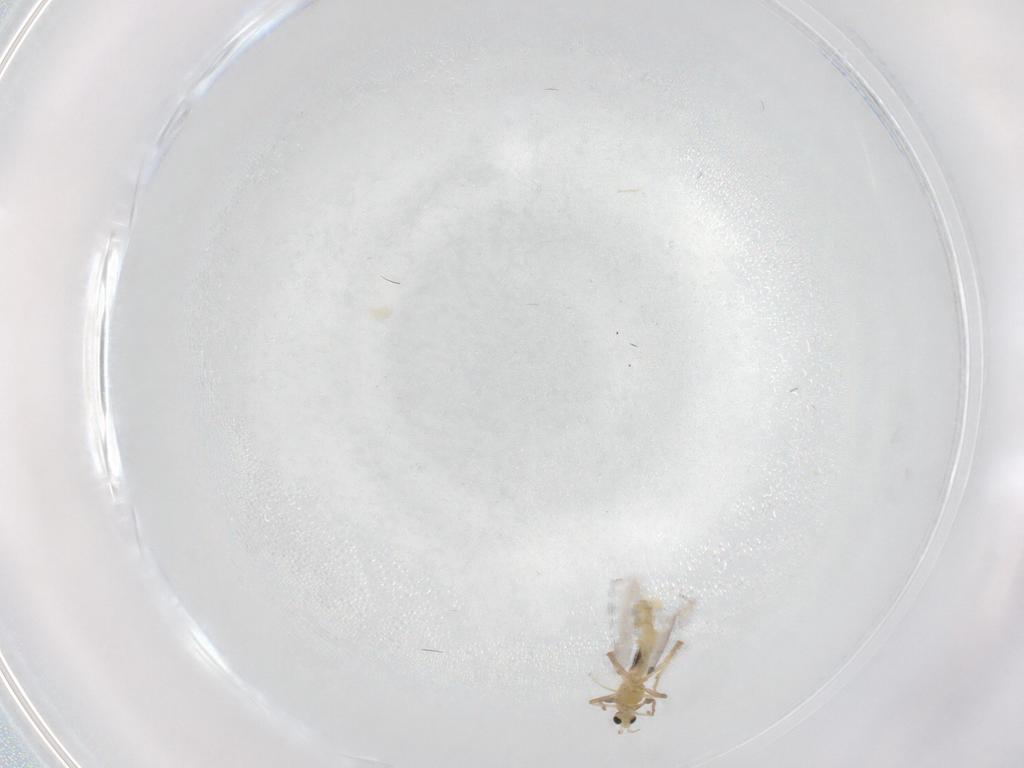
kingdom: Animalia
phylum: Arthropoda
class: Insecta
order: Diptera
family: Chironomidae
